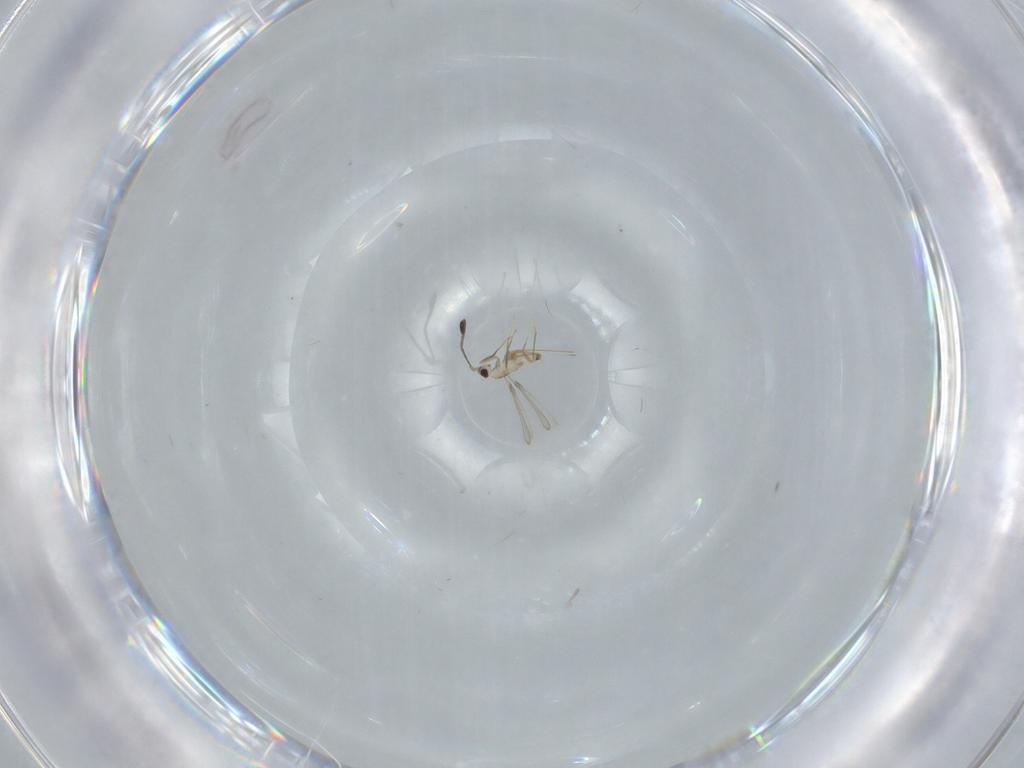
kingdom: Animalia
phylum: Arthropoda
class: Insecta
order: Hymenoptera
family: Mymaridae
